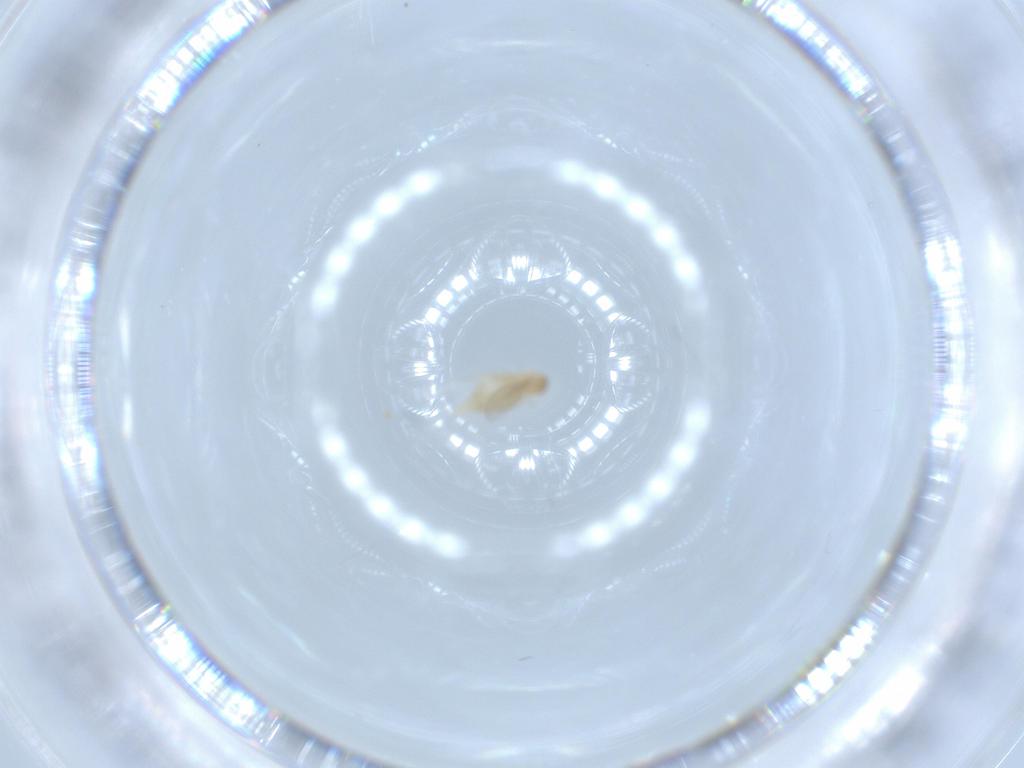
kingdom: Animalia
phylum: Arthropoda
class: Insecta
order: Diptera
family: Cecidomyiidae
